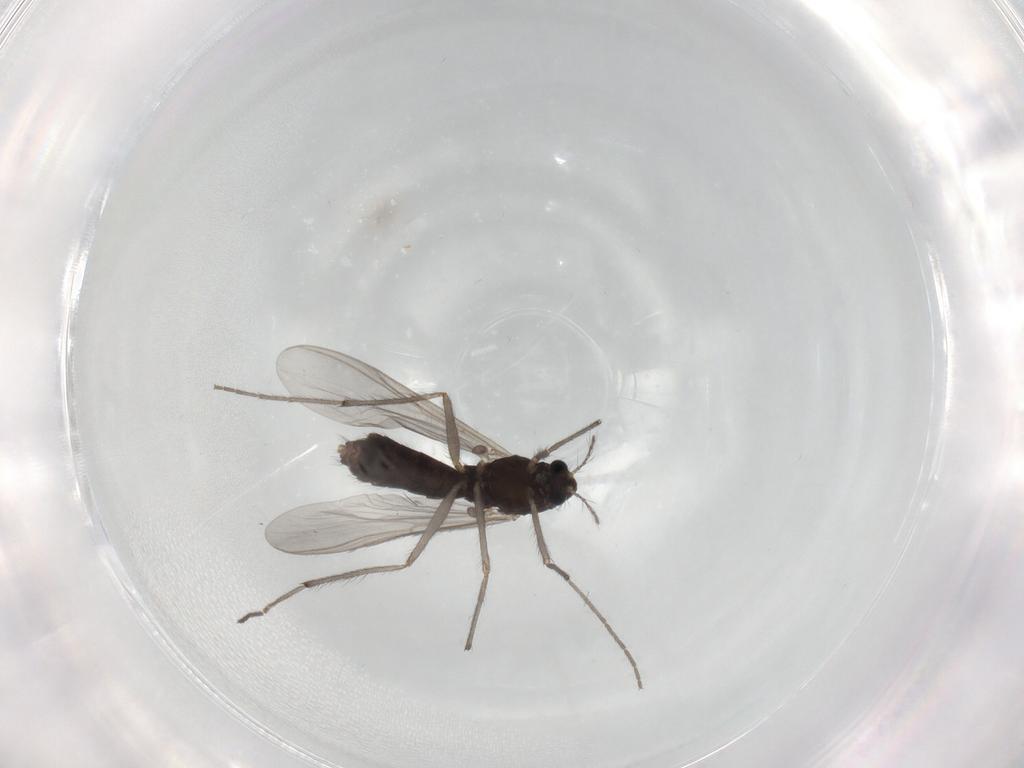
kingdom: Animalia
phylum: Arthropoda
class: Insecta
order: Diptera
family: Chironomidae
